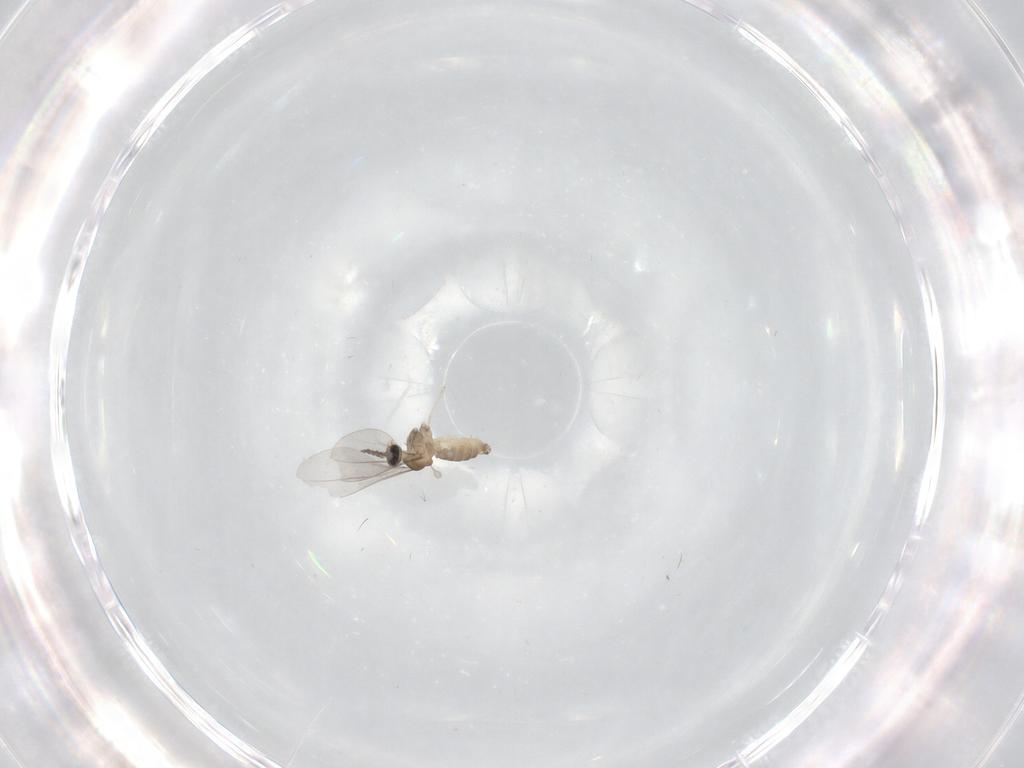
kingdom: Animalia
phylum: Arthropoda
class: Insecta
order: Diptera
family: Cecidomyiidae
